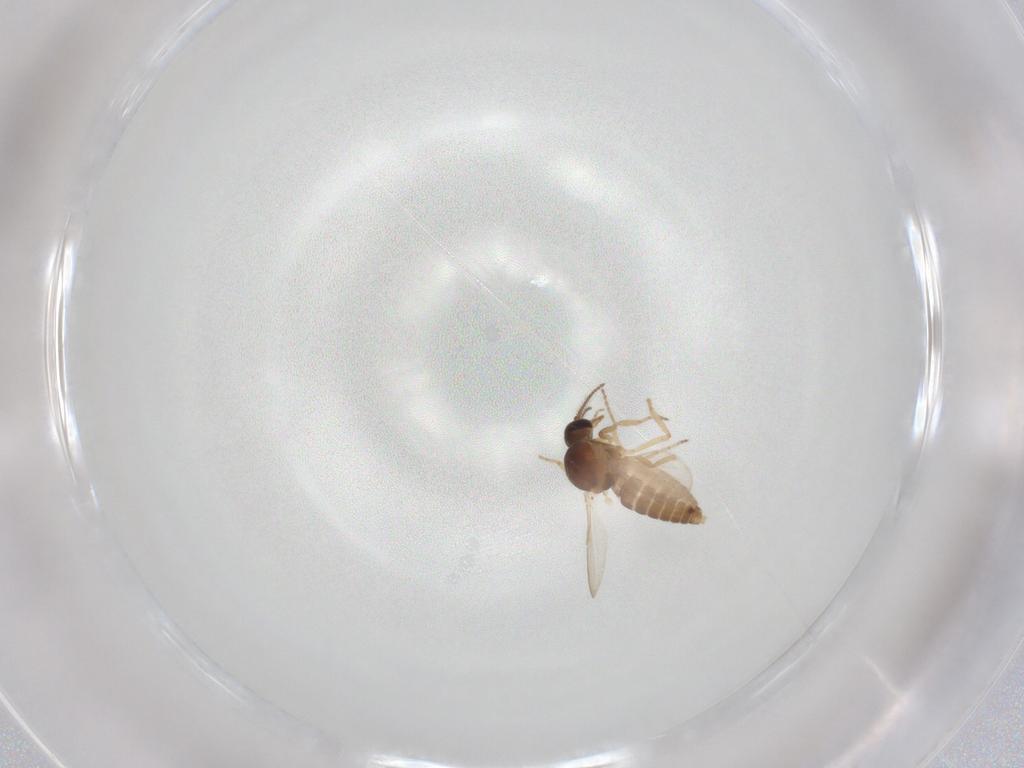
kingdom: Animalia
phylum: Arthropoda
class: Insecta
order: Diptera
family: Ceratopogonidae
